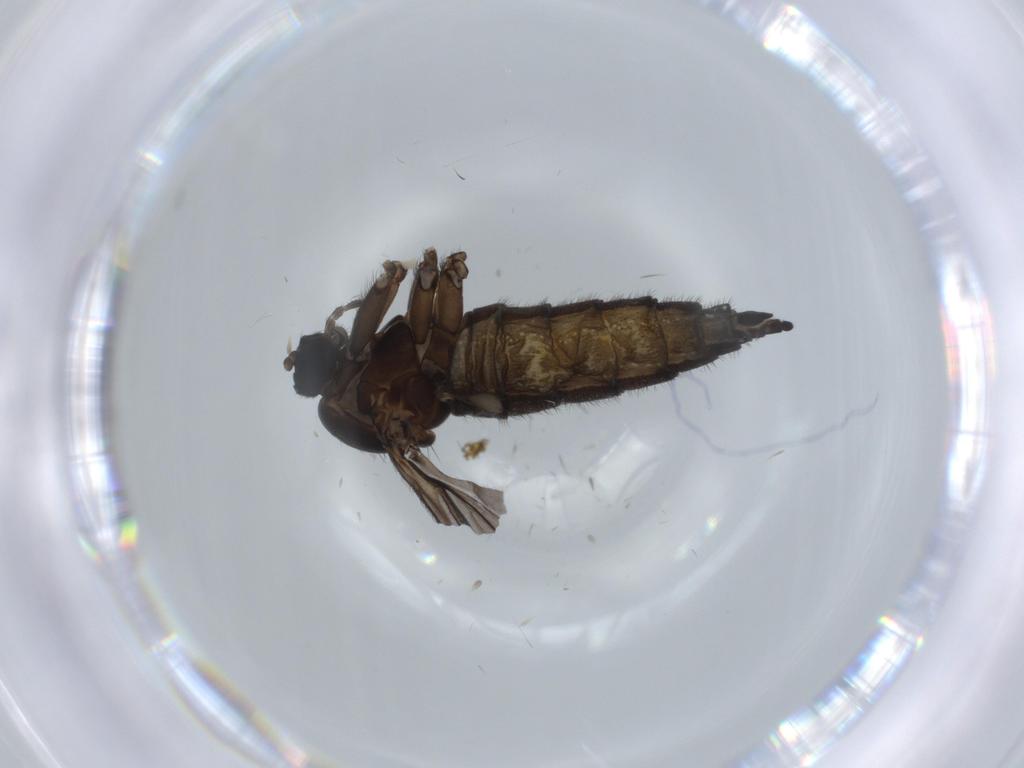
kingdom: Animalia
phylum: Arthropoda
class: Insecta
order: Diptera
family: Sciaridae
